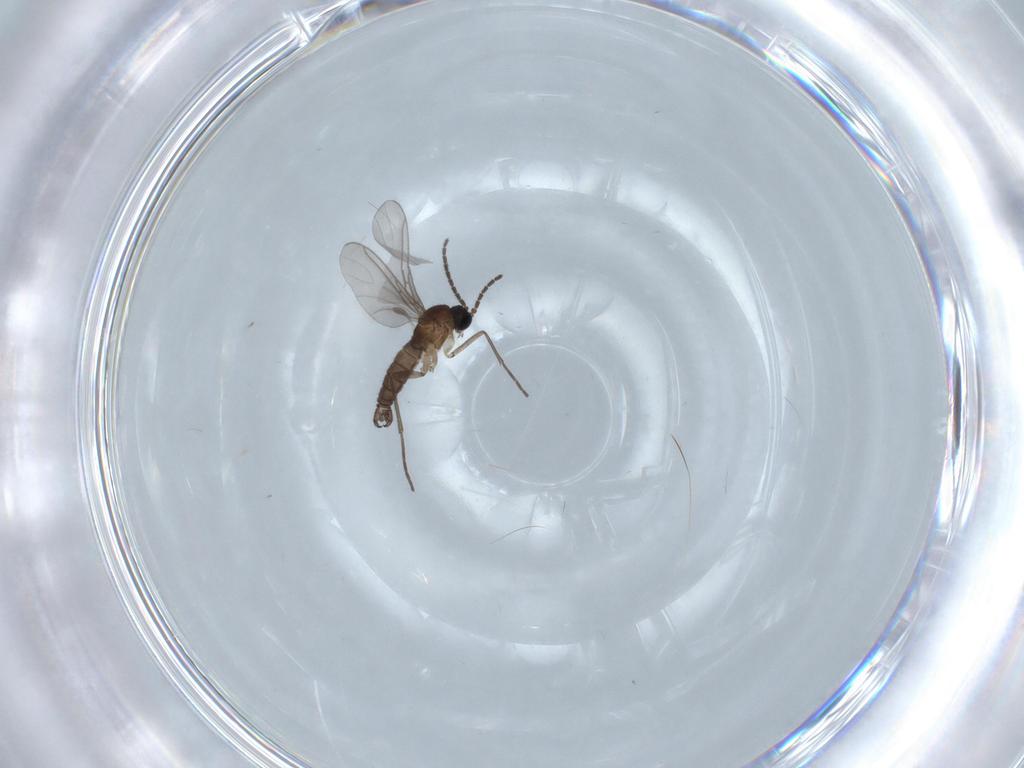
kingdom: Animalia
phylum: Arthropoda
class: Insecta
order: Diptera
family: Cecidomyiidae
